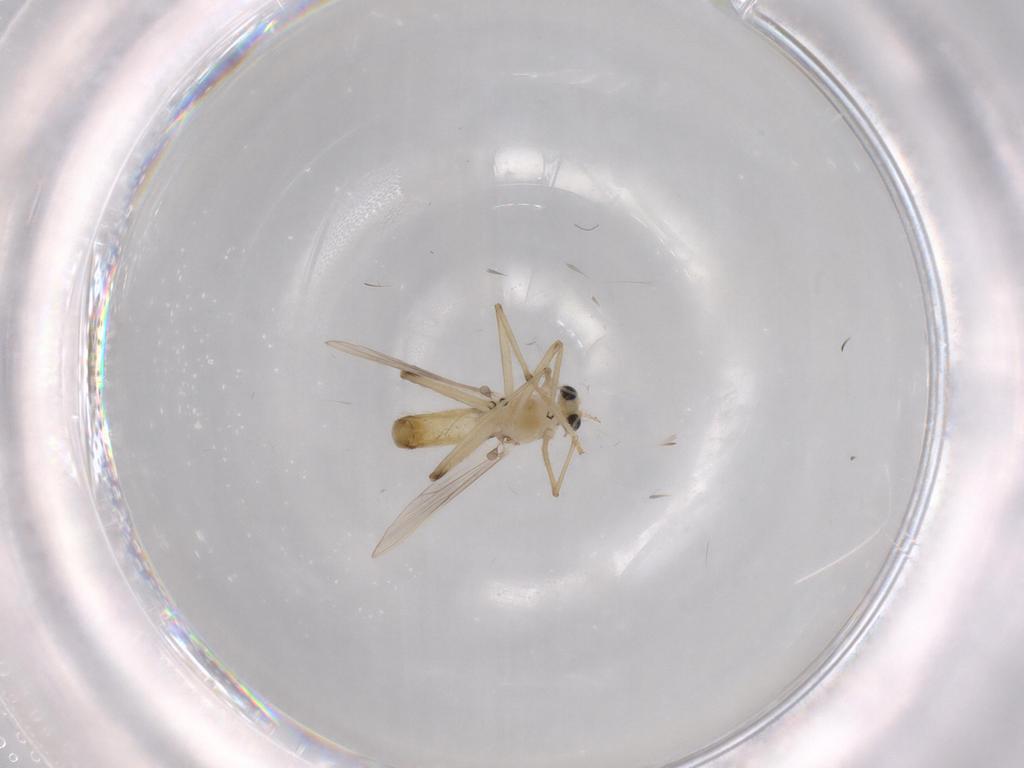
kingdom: Animalia
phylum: Arthropoda
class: Insecta
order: Diptera
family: Chironomidae
